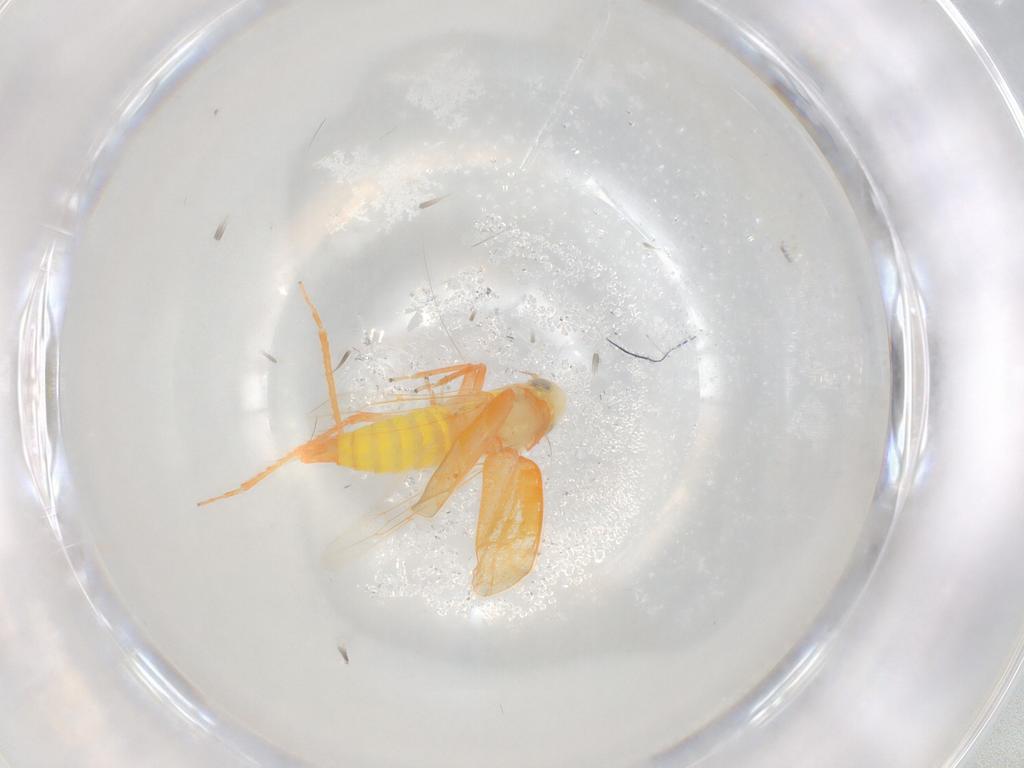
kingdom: Animalia
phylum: Arthropoda
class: Insecta
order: Hemiptera
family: Cicadellidae
